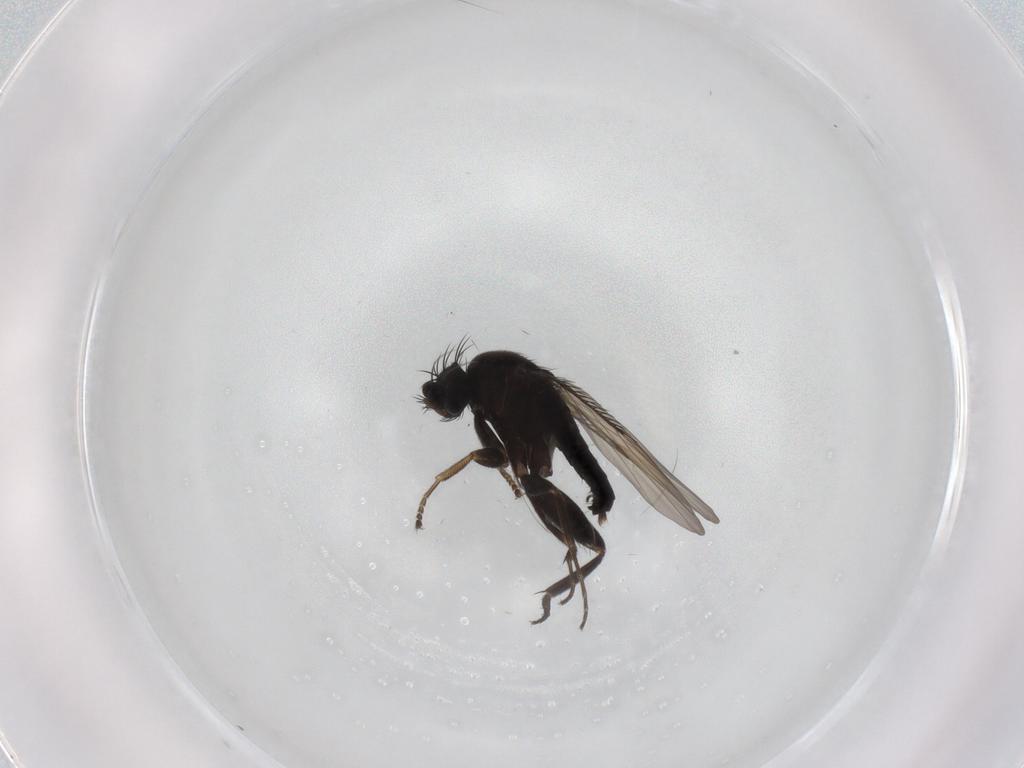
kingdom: Animalia
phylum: Arthropoda
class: Insecta
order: Diptera
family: Phoridae
